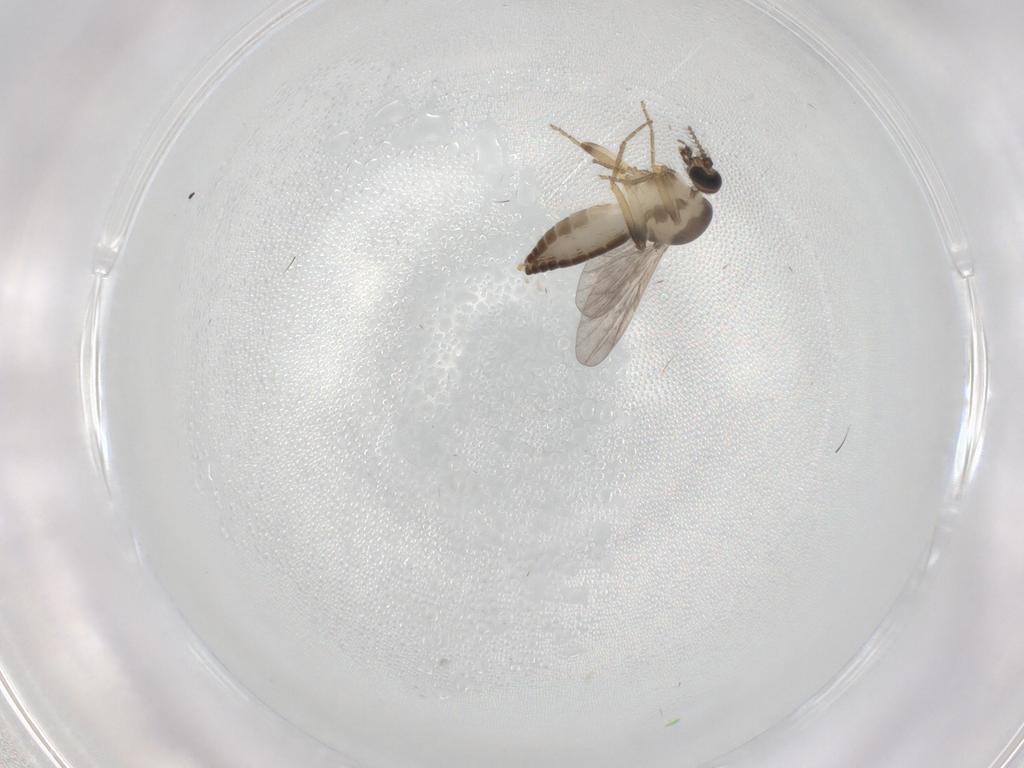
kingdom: Animalia
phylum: Arthropoda
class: Insecta
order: Diptera
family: Ceratopogonidae
